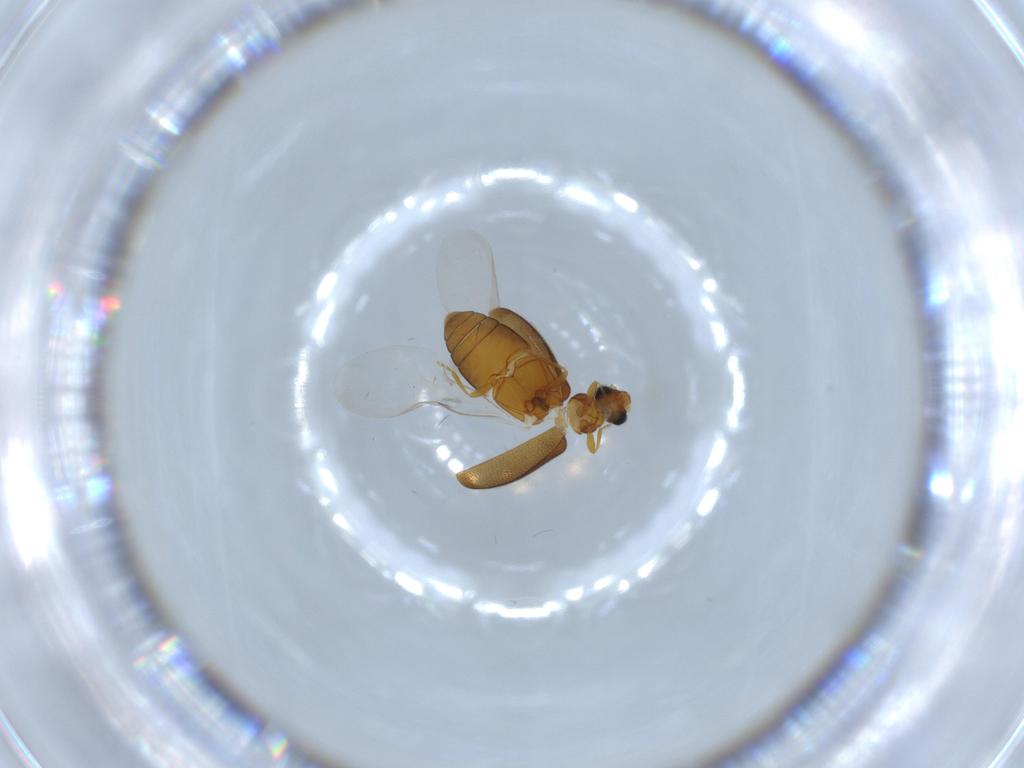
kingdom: Animalia
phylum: Arthropoda
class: Insecta
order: Coleoptera
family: Aderidae
